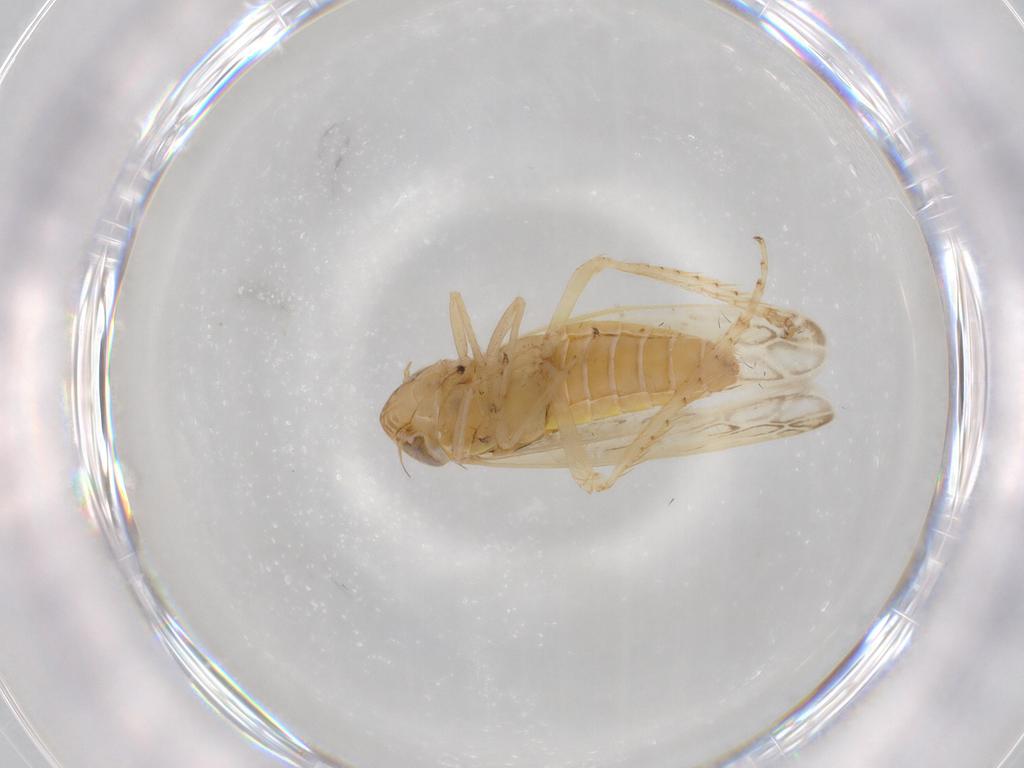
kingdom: Animalia
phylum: Arthropoda
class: Insecta
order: Hemiptera
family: Cicadellidae
